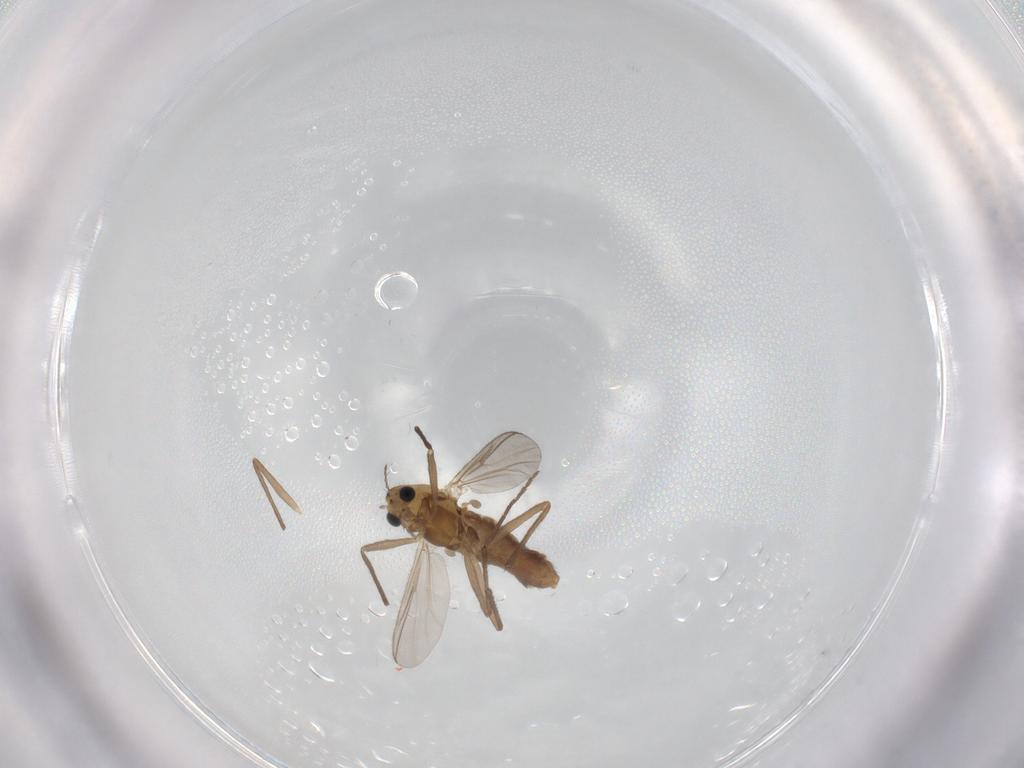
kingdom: Animalia
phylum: Arthropoda
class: Insecta
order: Diptera
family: Chironomidae
